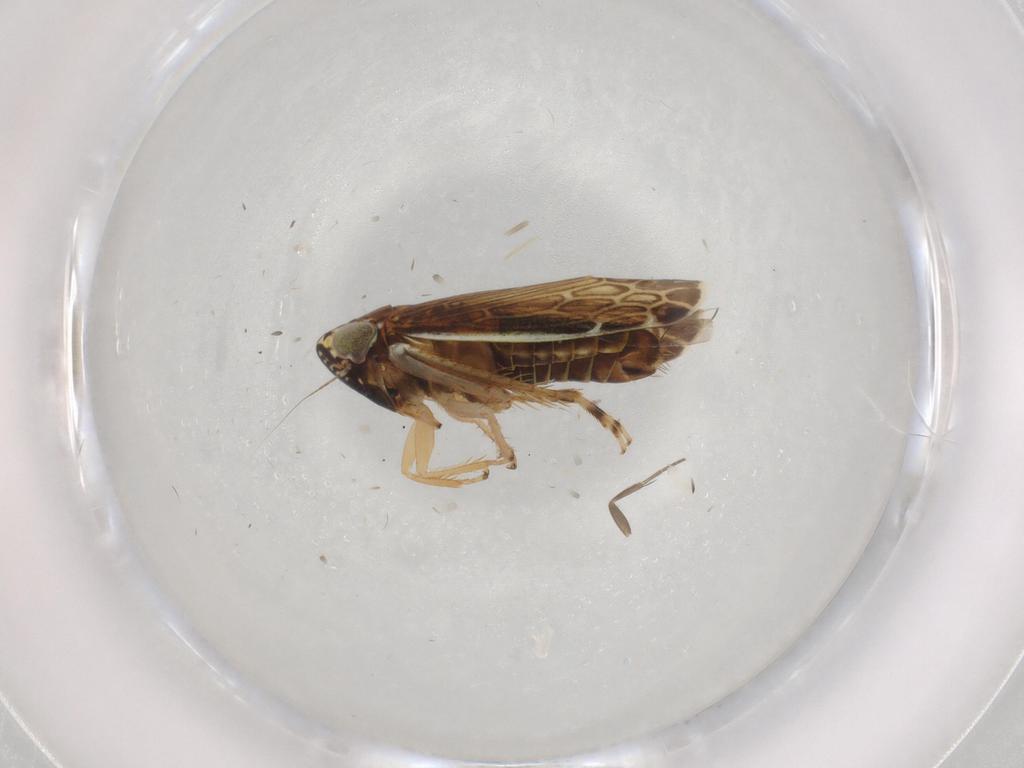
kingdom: Animalia
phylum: Arthropoda
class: Insecta
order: Hemiptera
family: Cicadellidae
